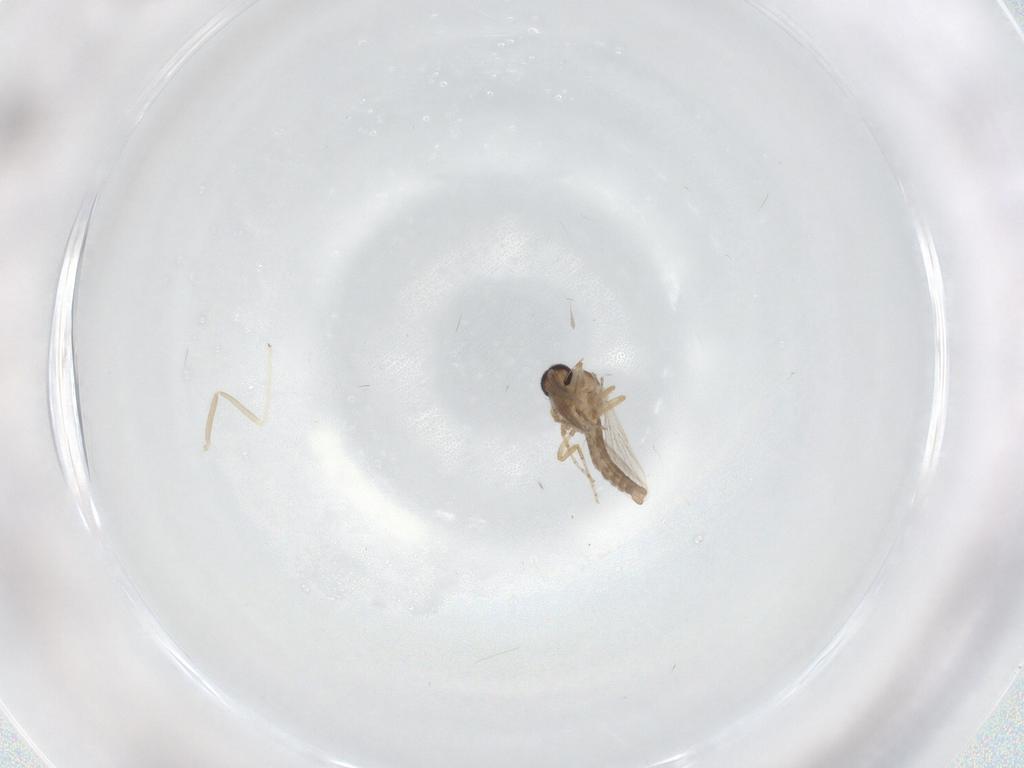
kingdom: Animalia
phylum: Arthropoda
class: Insecta
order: Diptera
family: Ceratopogonidae
